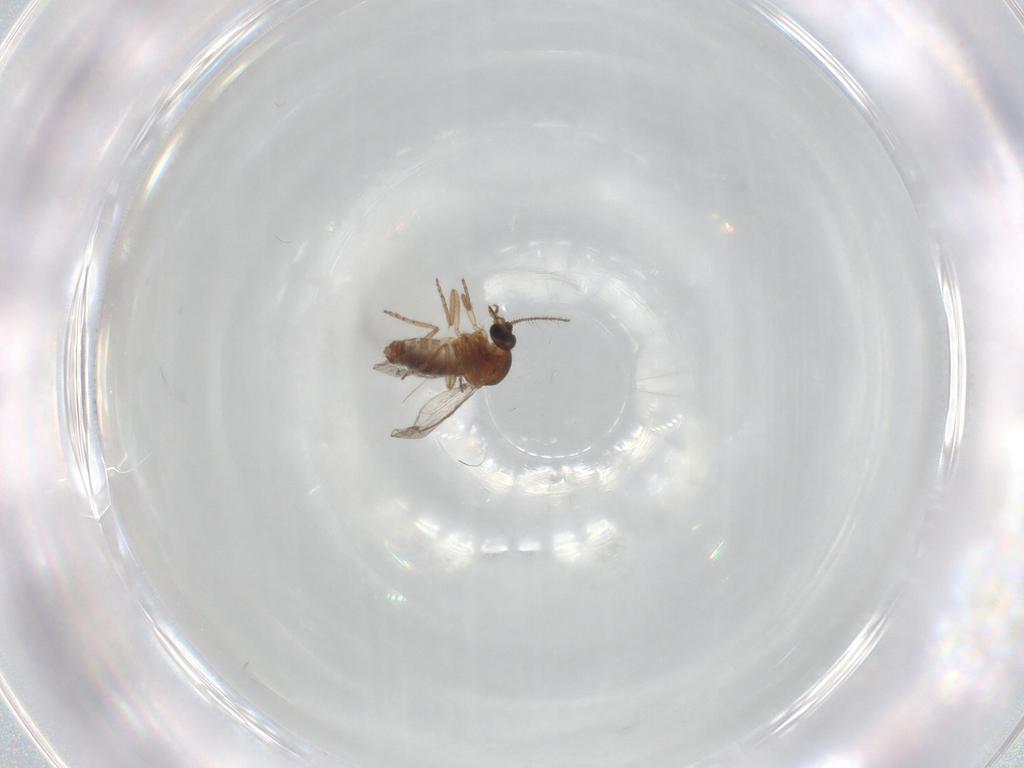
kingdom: Animalia
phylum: Arthropoda
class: Insecta
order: Diptera
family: Ceratopogonidae
